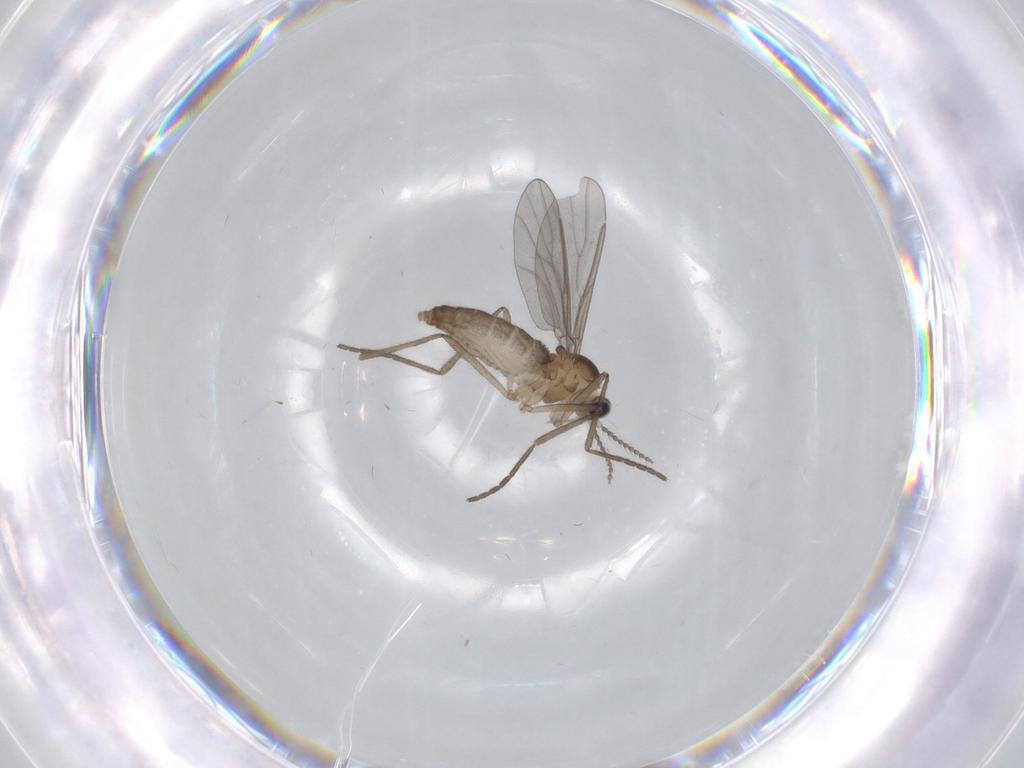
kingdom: Animalia
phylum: Arthropoda
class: Insecta
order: Diptera
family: Cecidomyiidae
